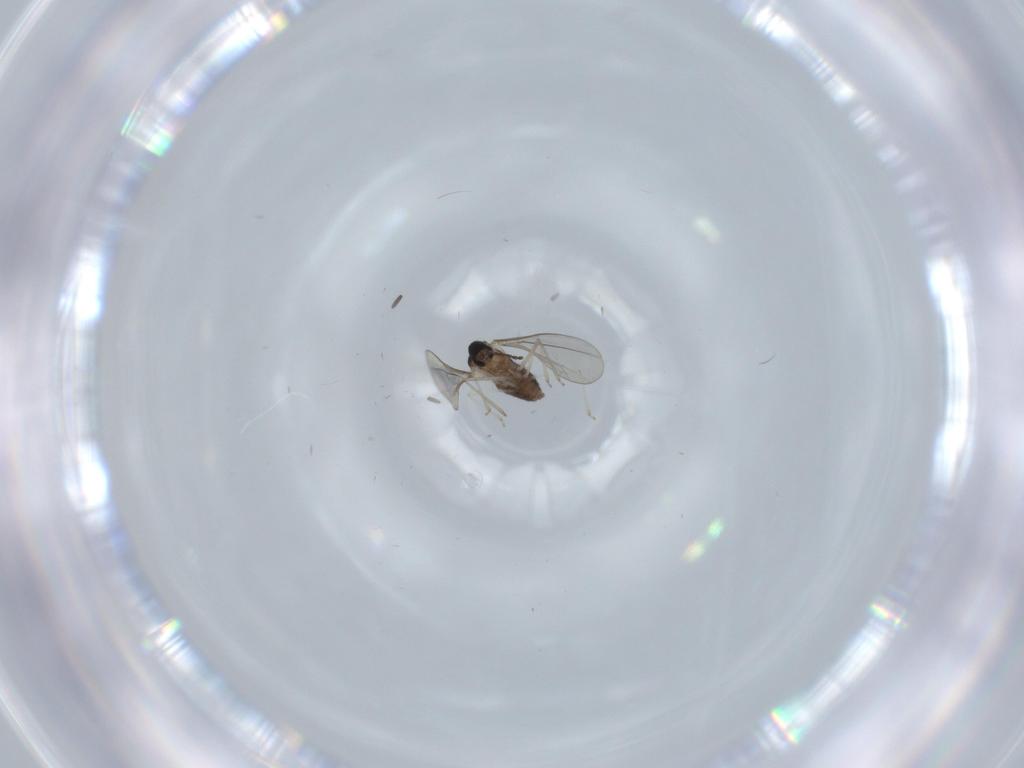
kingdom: Animalia
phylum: Arthropoda
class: Insecta
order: Diptera
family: Cecidomyiidae
